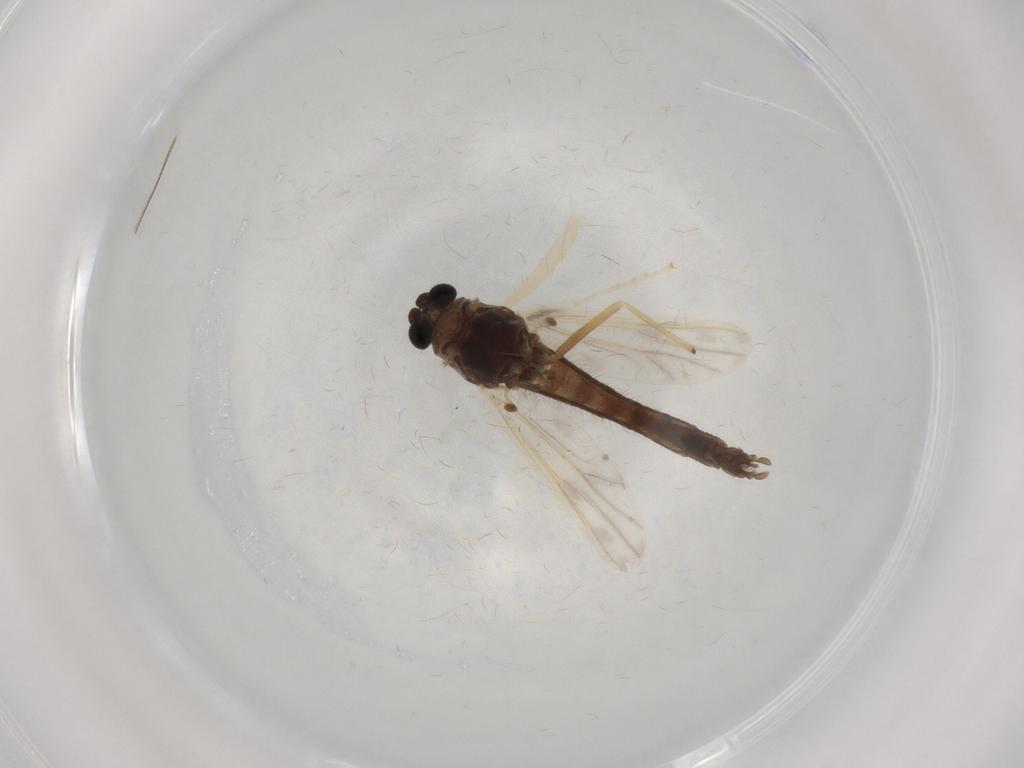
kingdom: Animalia
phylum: Arthropoda
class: Insecta
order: Diptera
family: Chironomidae
